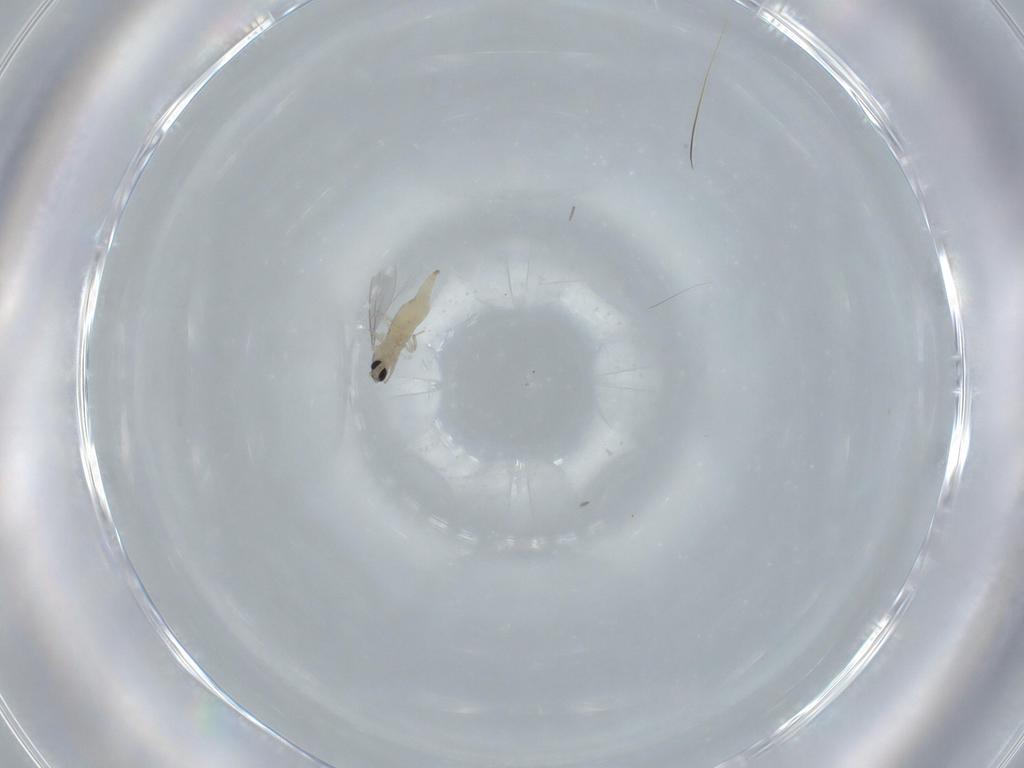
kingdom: Animalia
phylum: Arthropoda
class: Insecta
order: Diptera
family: Cecidomyiidae
